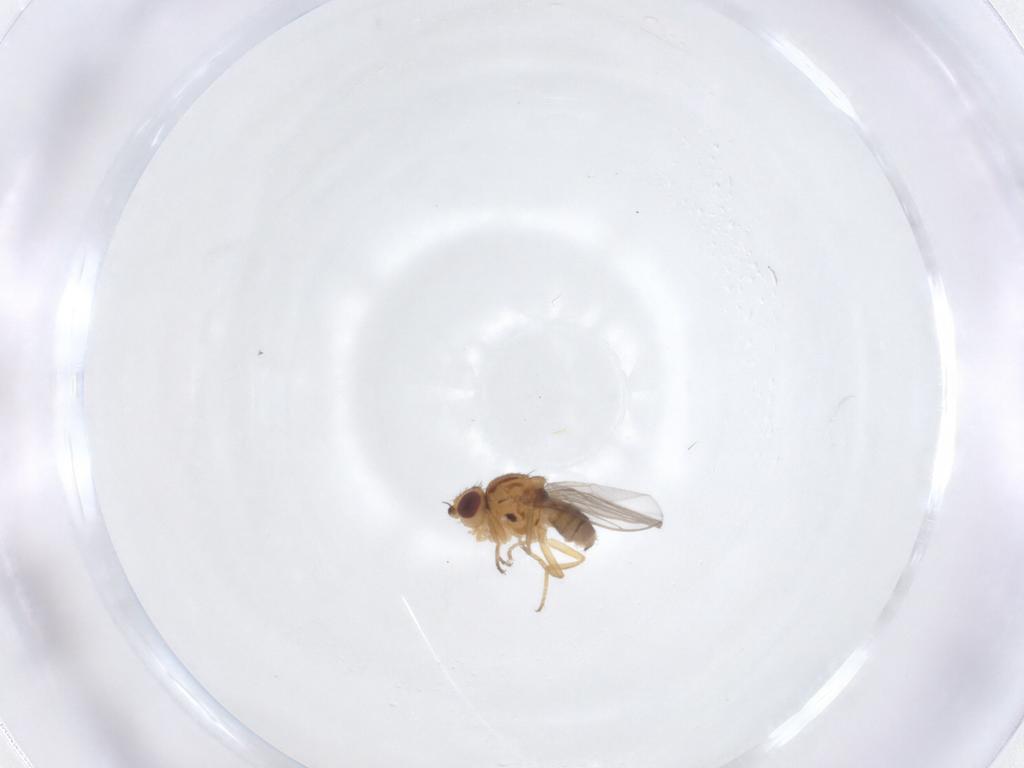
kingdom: Animalia
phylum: Arthropoda
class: Insecta
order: Diptera
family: Chloropidae
